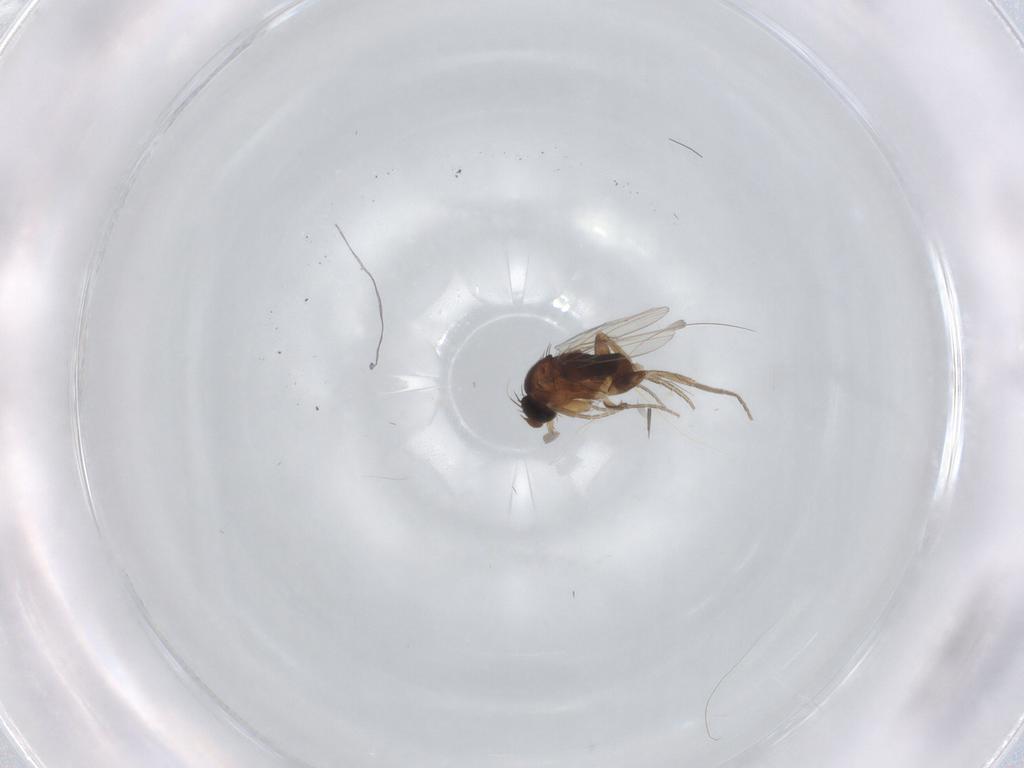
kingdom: Animalia
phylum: Arthropoda
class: Insecta
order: Diptera
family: Phoridae
